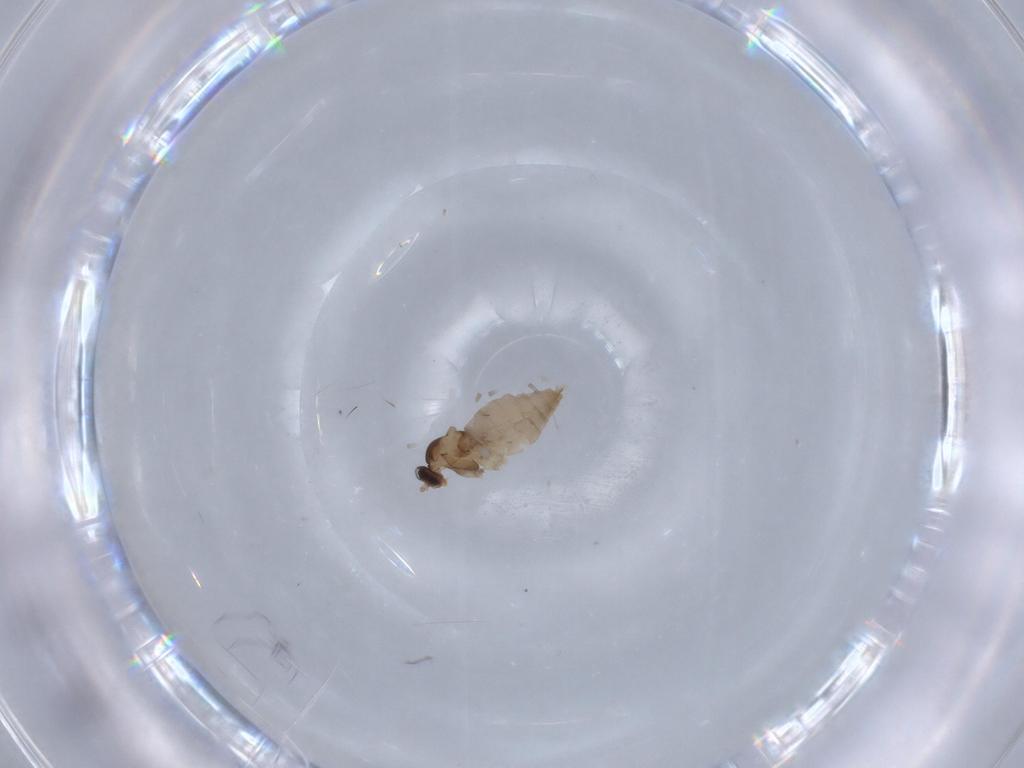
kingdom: Animalia
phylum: Arthropoda
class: Insecta
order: Diptera
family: Cecidomyiidae
